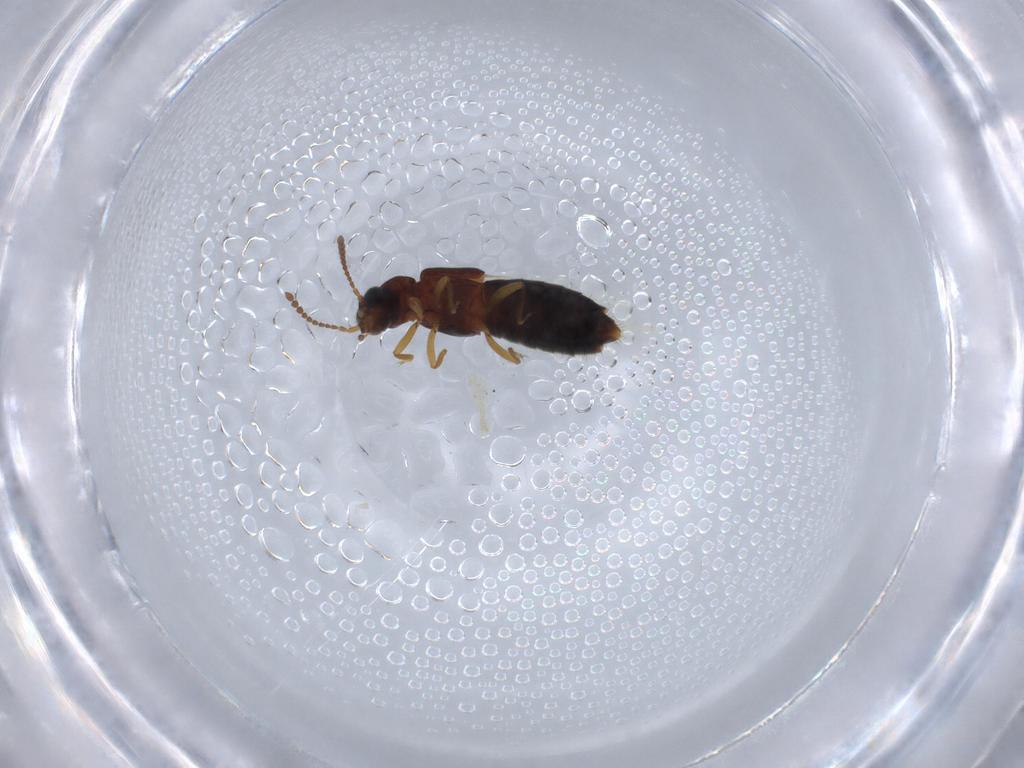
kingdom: Animalia
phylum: Arthropoda
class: Insecta
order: Coleoptera
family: Staphylinidae
